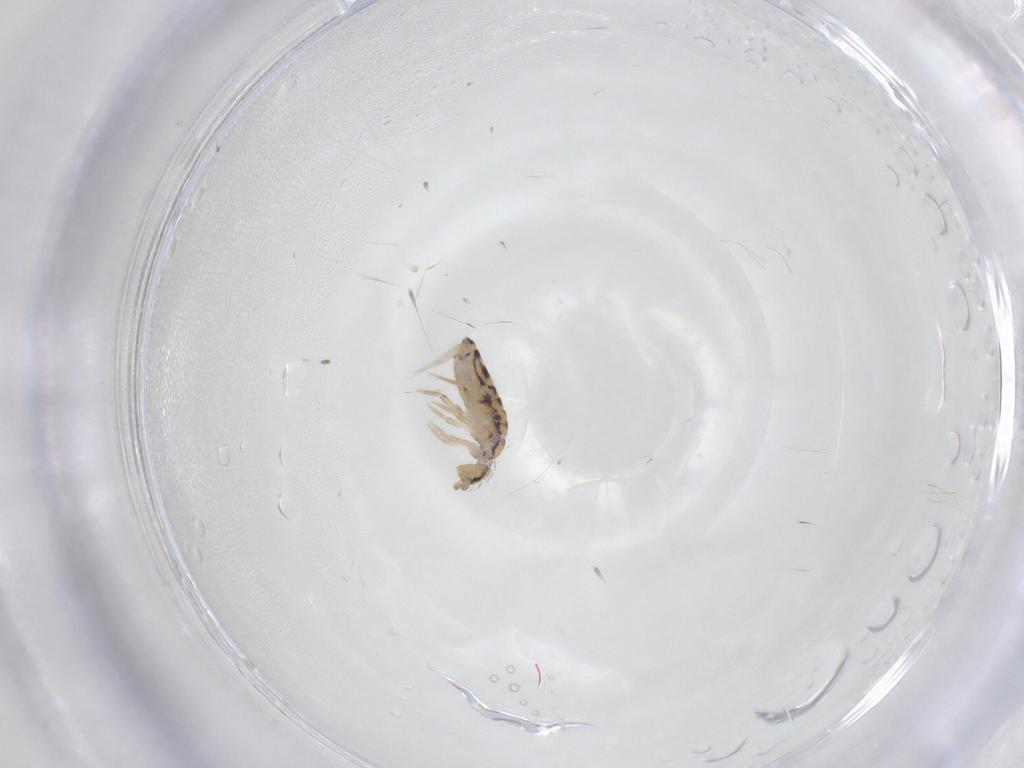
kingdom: Animalia
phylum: Arthropoda
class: Collembola
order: Entomobryomorpha
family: Entomobryidae
